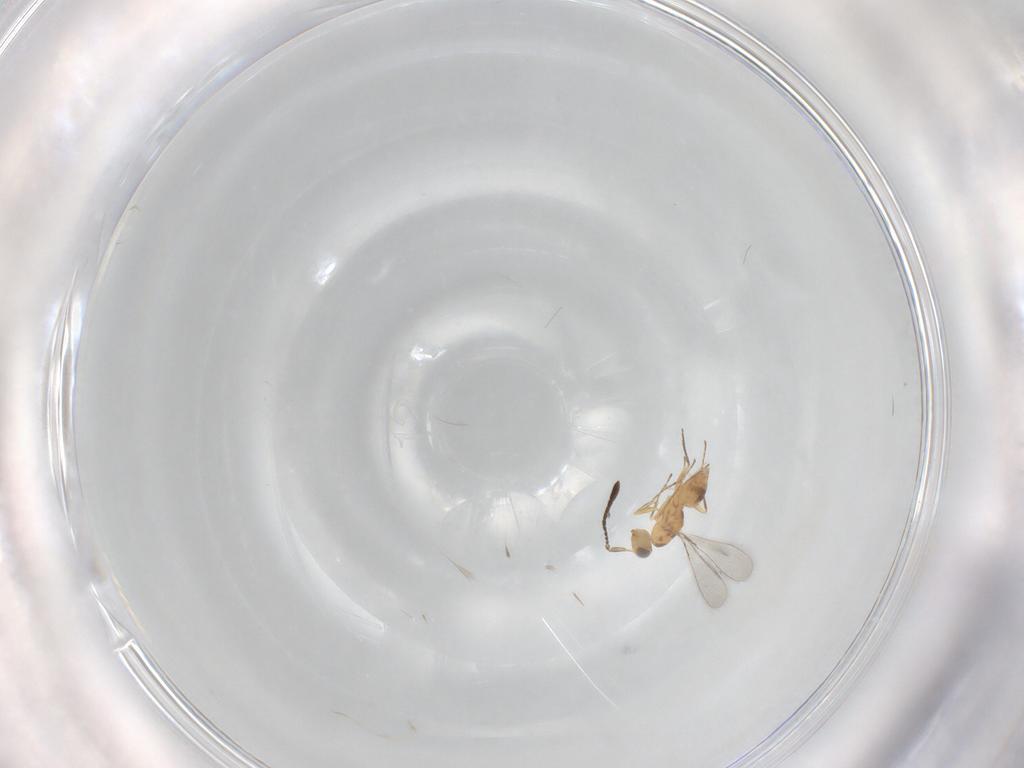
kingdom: Animalia
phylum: Arthropoda
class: Insecta
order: Hymenoptera
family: Mymaridae
